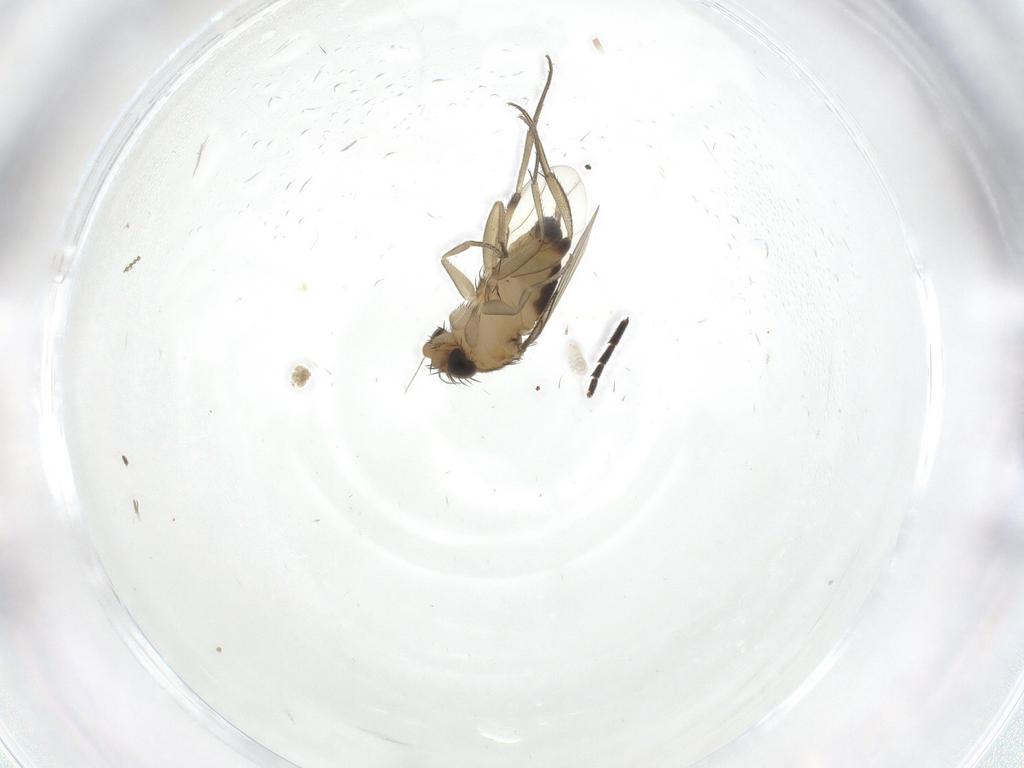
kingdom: Animalia
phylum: Arthropoda
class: Insecta
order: Diptera
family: Phoridae
